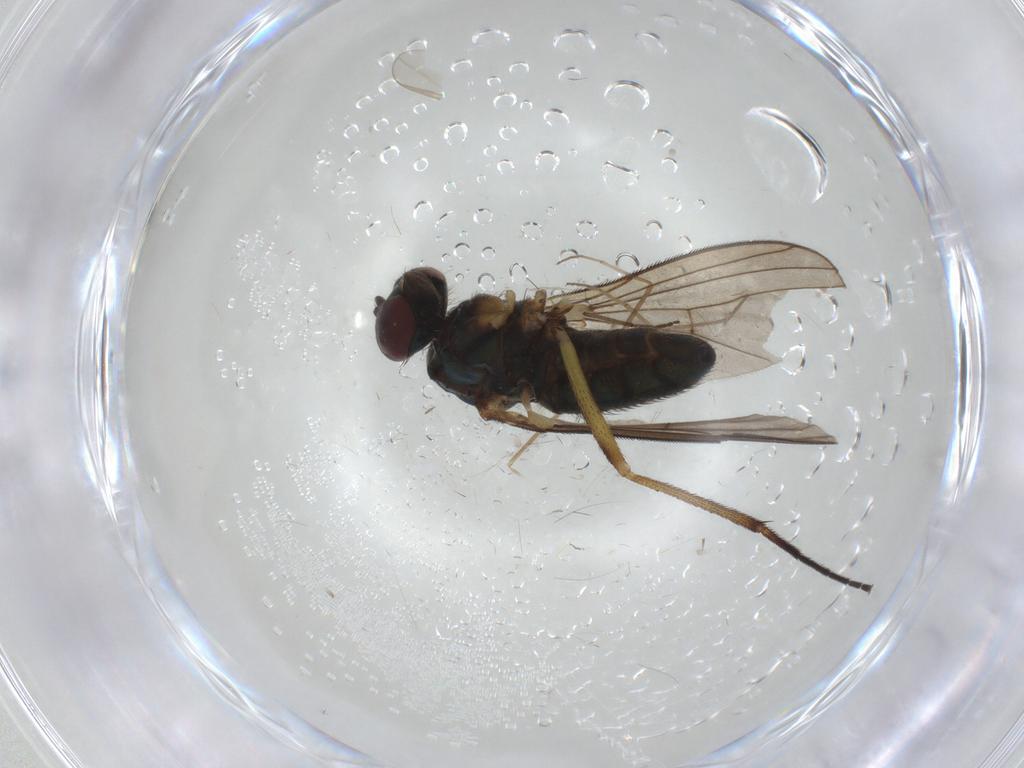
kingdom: Animalia
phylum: Arthropoda
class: Insecta
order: Diptera
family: Dolichopodidae
